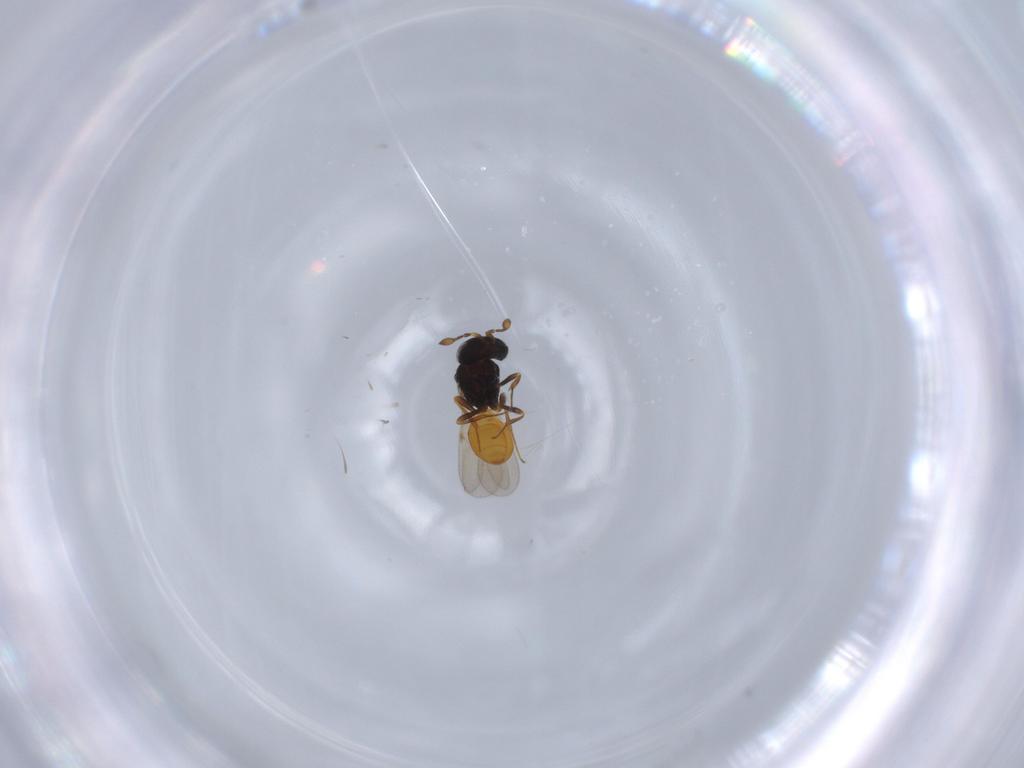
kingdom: Animalia
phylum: Arthropoda
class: Insecta
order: Hymenoptera
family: Scelionidae
